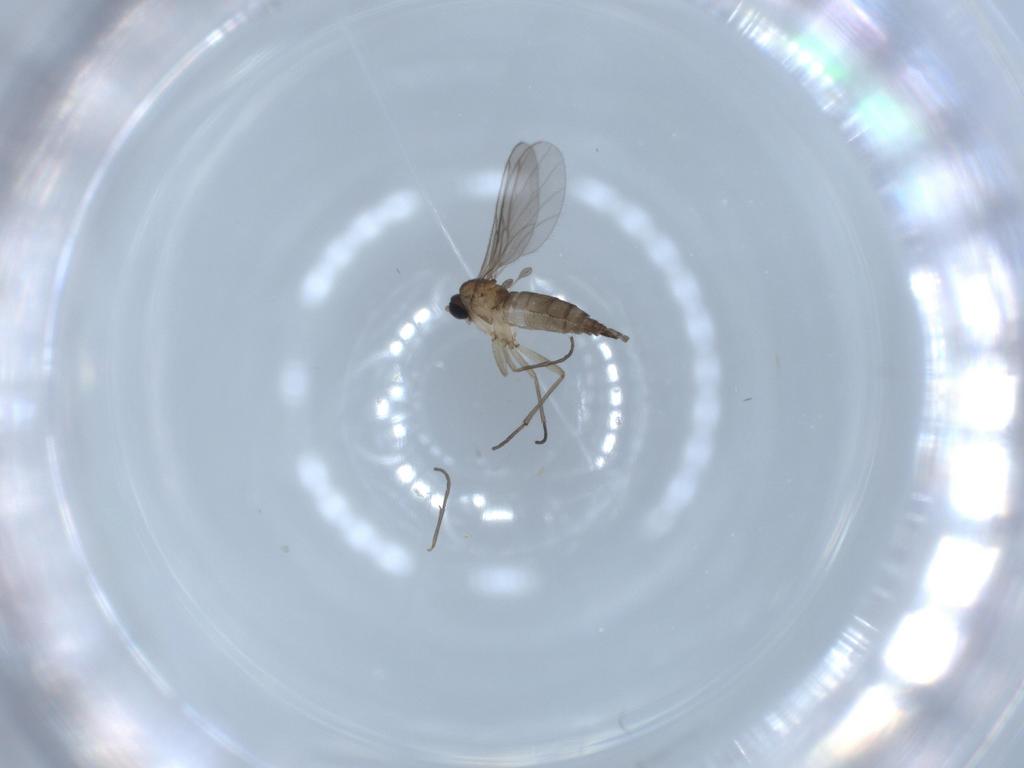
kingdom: Animalia
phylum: Arthropoda
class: Insecta
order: Diptera
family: Sciaridae
